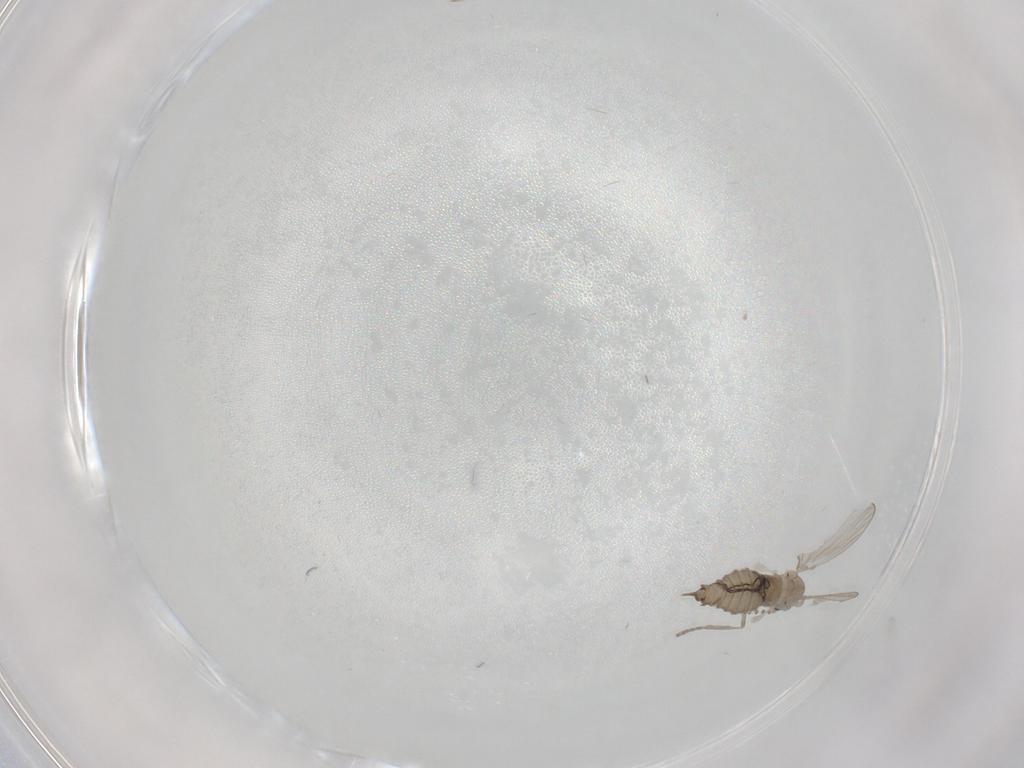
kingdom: Animalia
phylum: Arthropoda
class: Insecta
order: Diptera
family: Psychodidae
